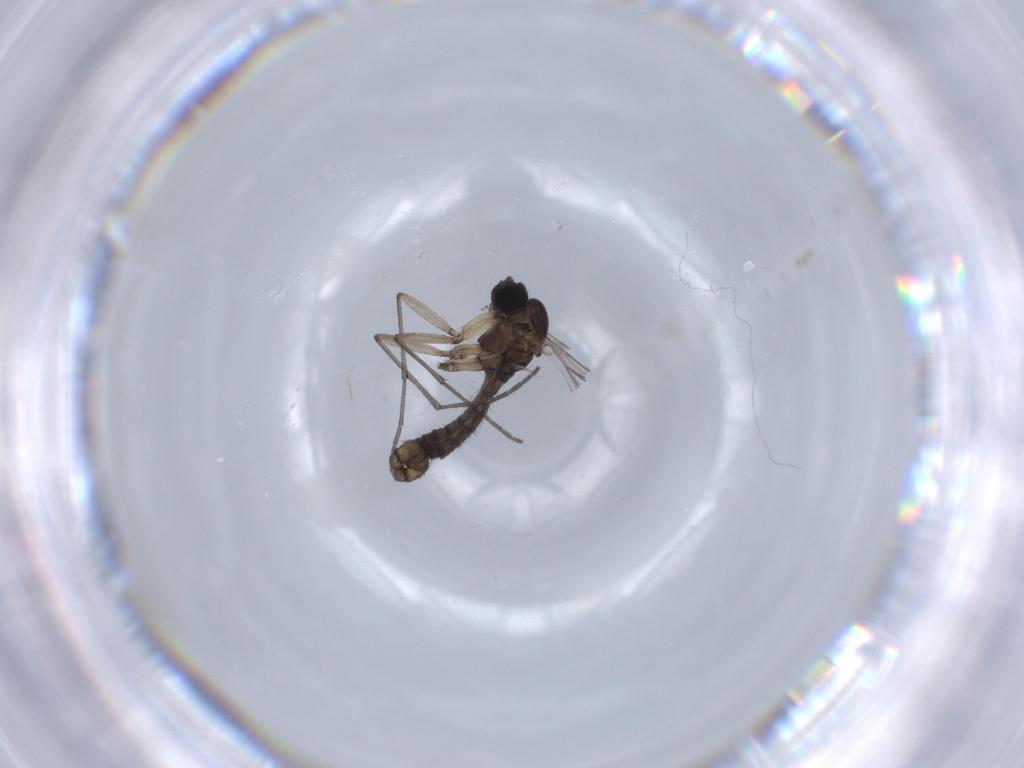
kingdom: Animalia
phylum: Arthropoda
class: Insecta
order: Diptera
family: Sciaridae
